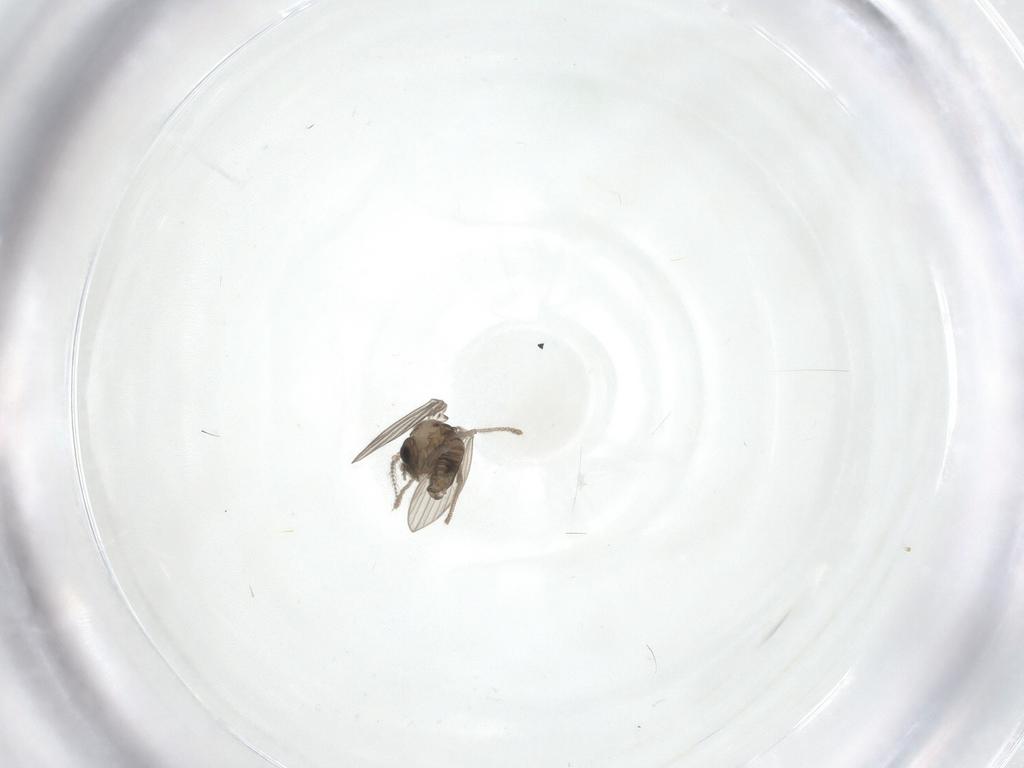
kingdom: Animalia
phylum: Arthropoda
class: Insecta
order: Diptera
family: Psychodidae
